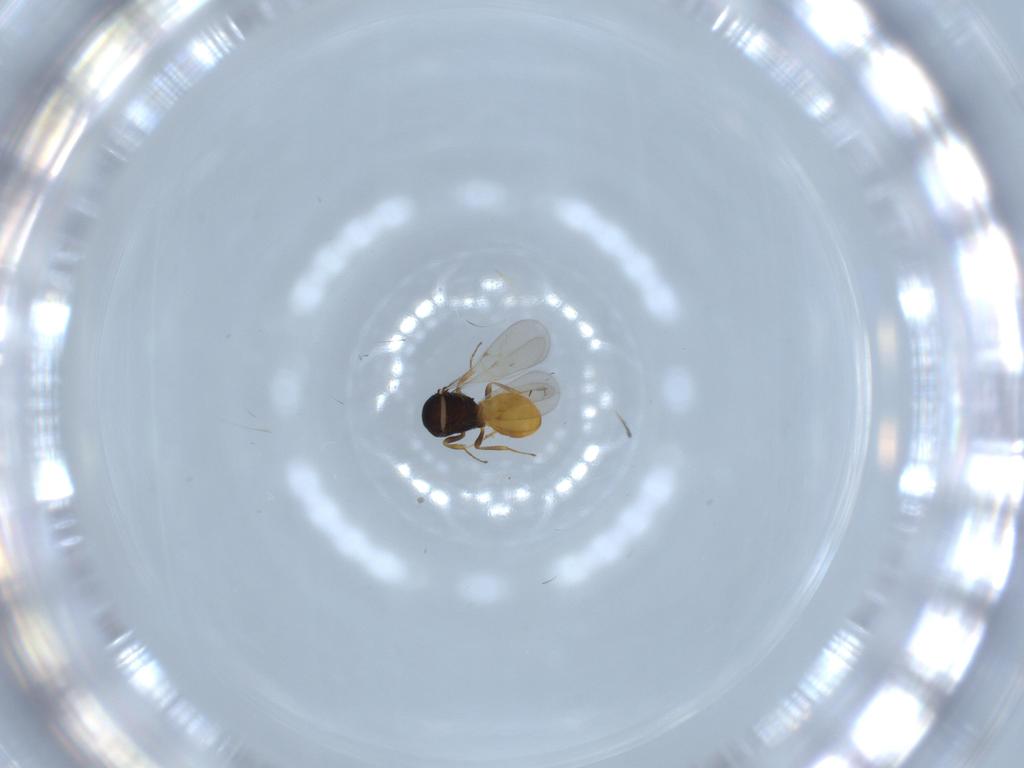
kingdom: Animalia
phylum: Arthropoda
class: Insecta
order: Hymenoptera
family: Scelionidae
